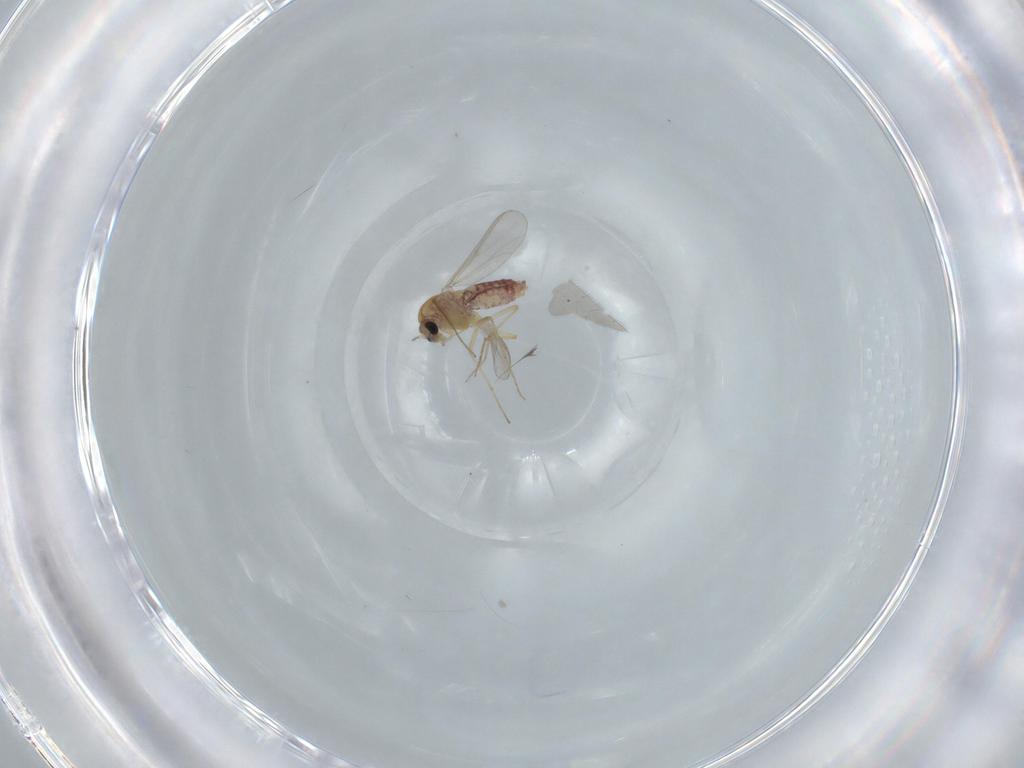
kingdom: Animalia
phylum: Arthropoda
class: Insecta
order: Diptera
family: Chironomidae
